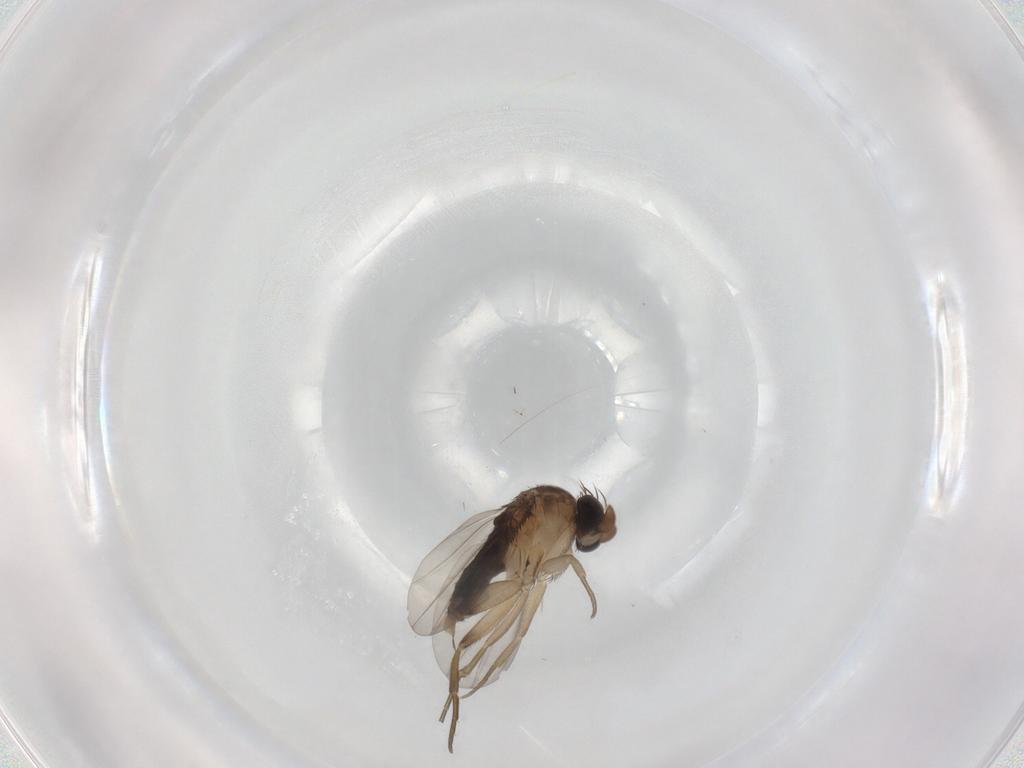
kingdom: Animalia
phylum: Arthropoda
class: Insecta
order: Diptera
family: Phoridae
